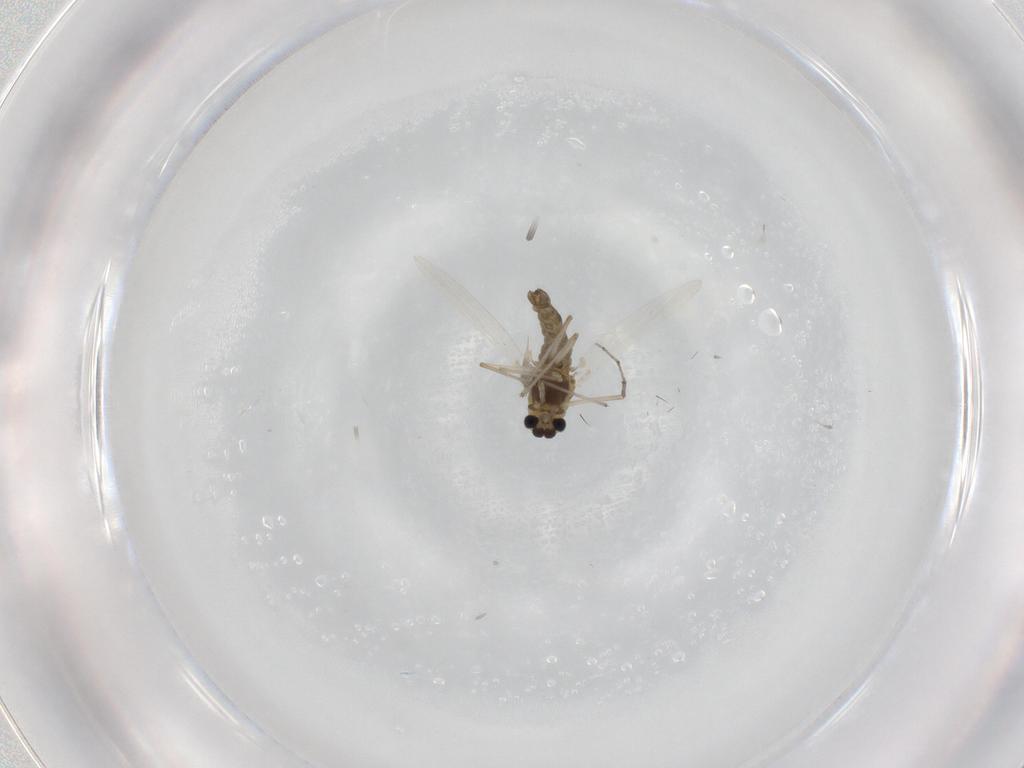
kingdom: Animalia
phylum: Arthropoda
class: Insecta
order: Diptera
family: Chironomidae
